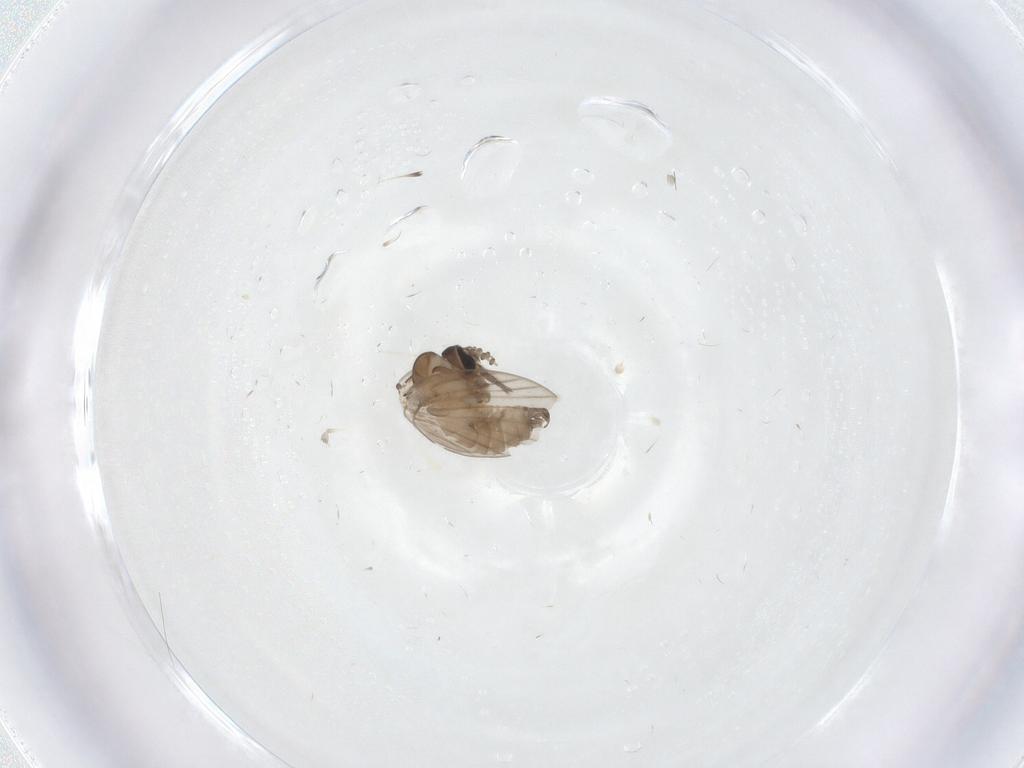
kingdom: Animalia
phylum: Arthropoda
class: Insecta
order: Diptera
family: Psychodidae
